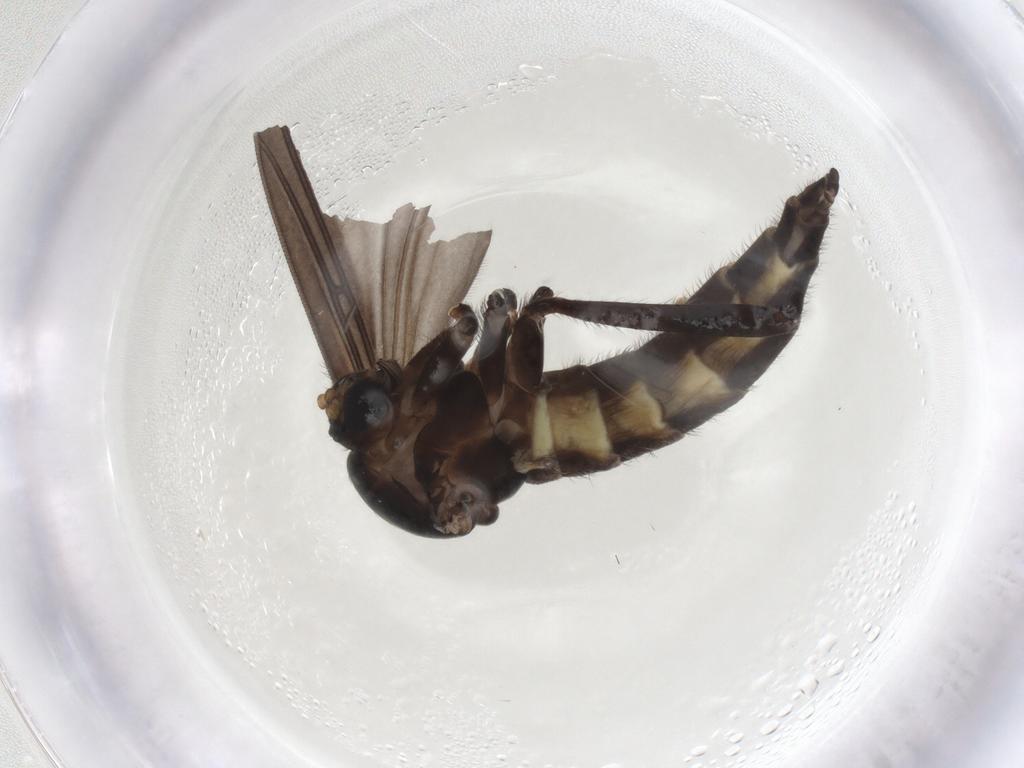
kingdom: Animalia
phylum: Arthropoda
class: Insecta
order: Diptera
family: Sciaridae
